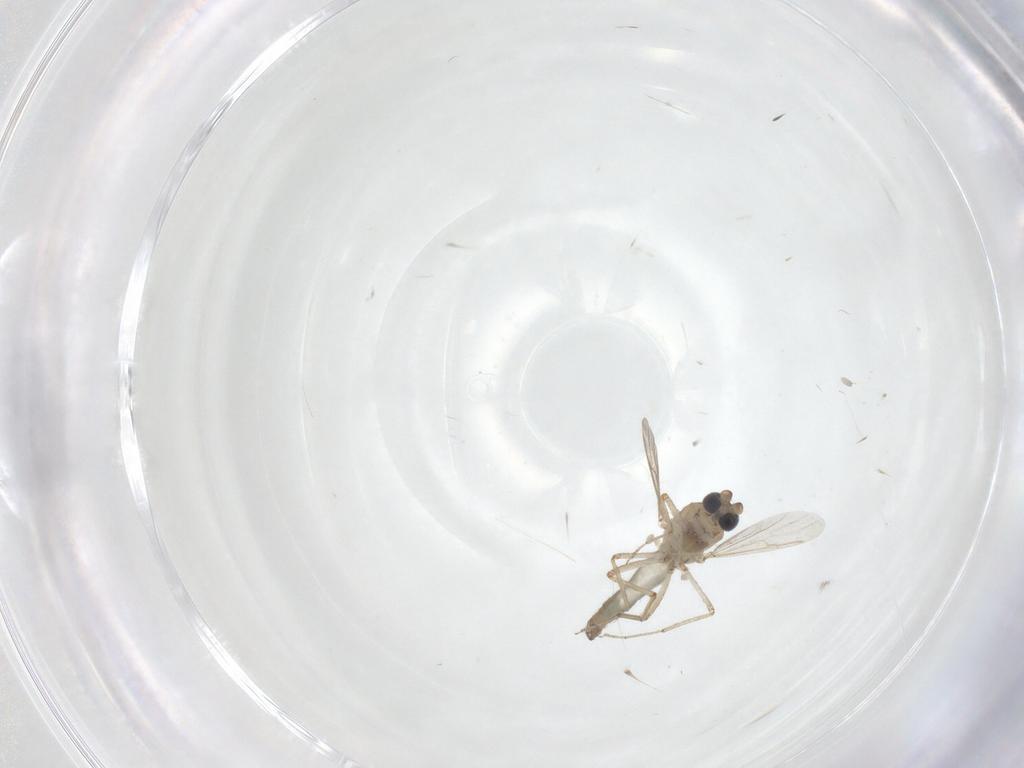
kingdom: Animalia
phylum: Arthropoda
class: Insecta
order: Diptera
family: Ceratopogonidae
